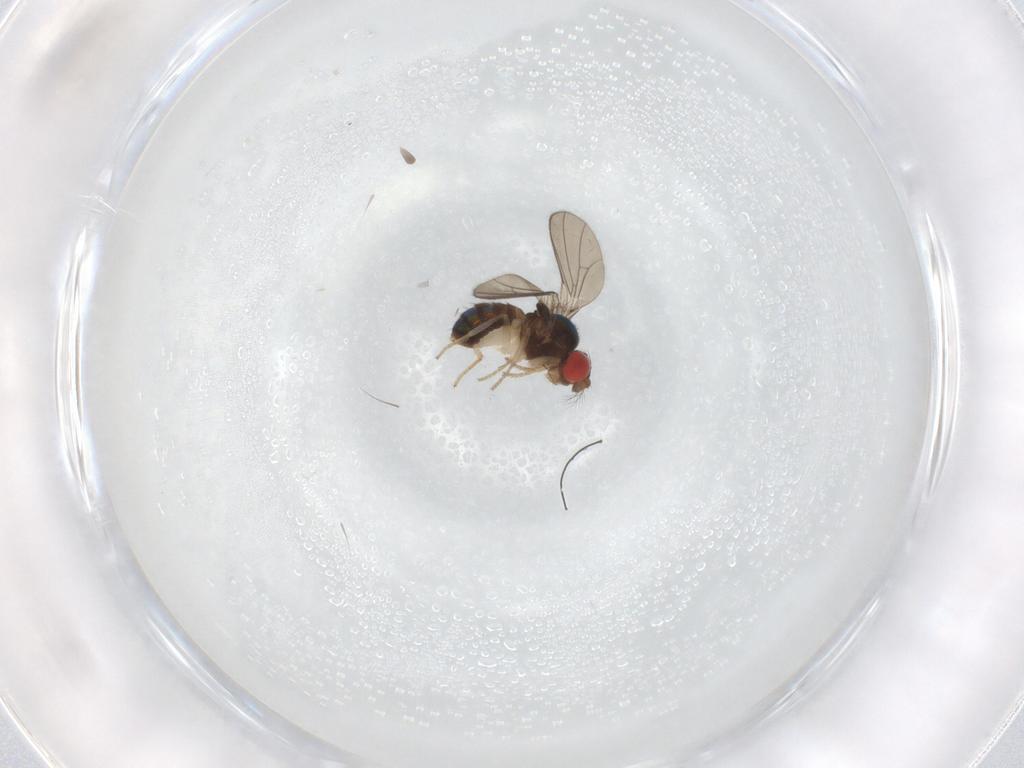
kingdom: Animalia
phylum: Arthropoda
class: Insecta
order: Diptera
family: Drosophilidae
